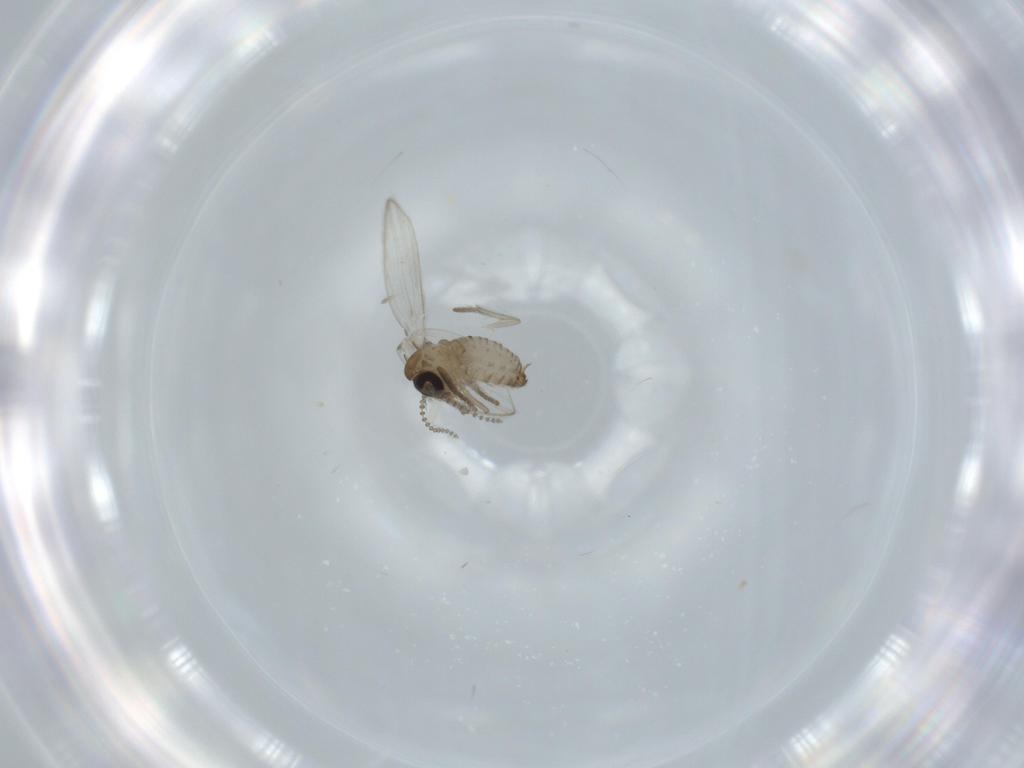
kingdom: Animalia
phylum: Arthropoda
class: Insecta
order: Diptera
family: Psychodidae
